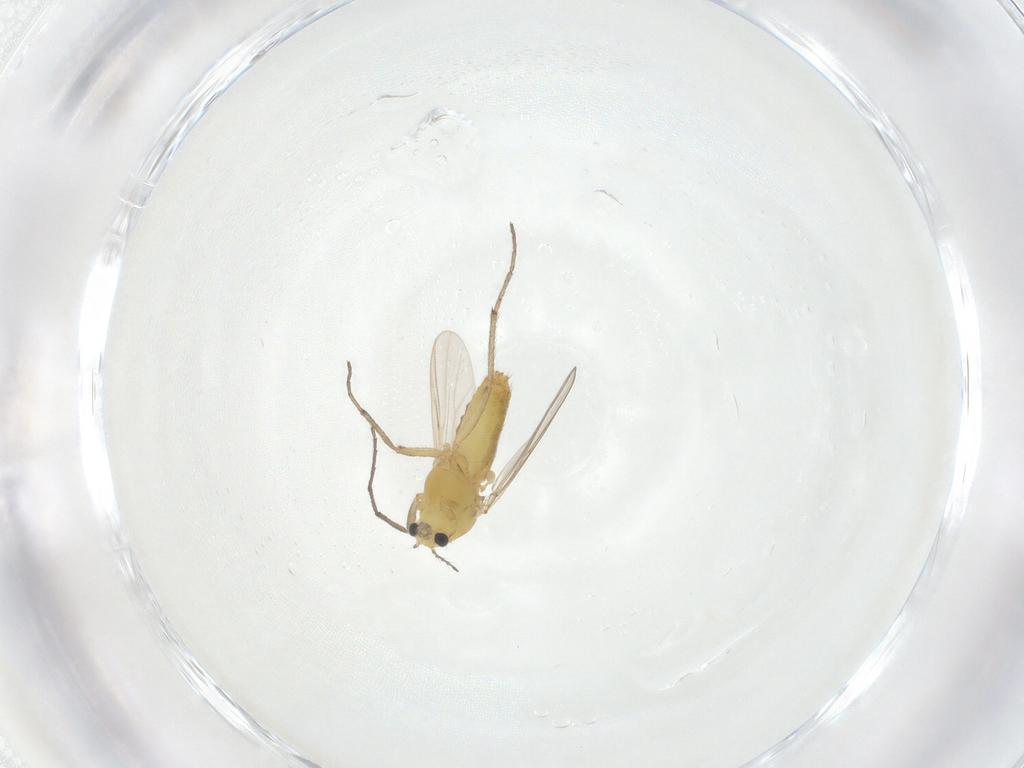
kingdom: Animalia
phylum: Arthropoda
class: Insecta
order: Diptera
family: Chironomidae
